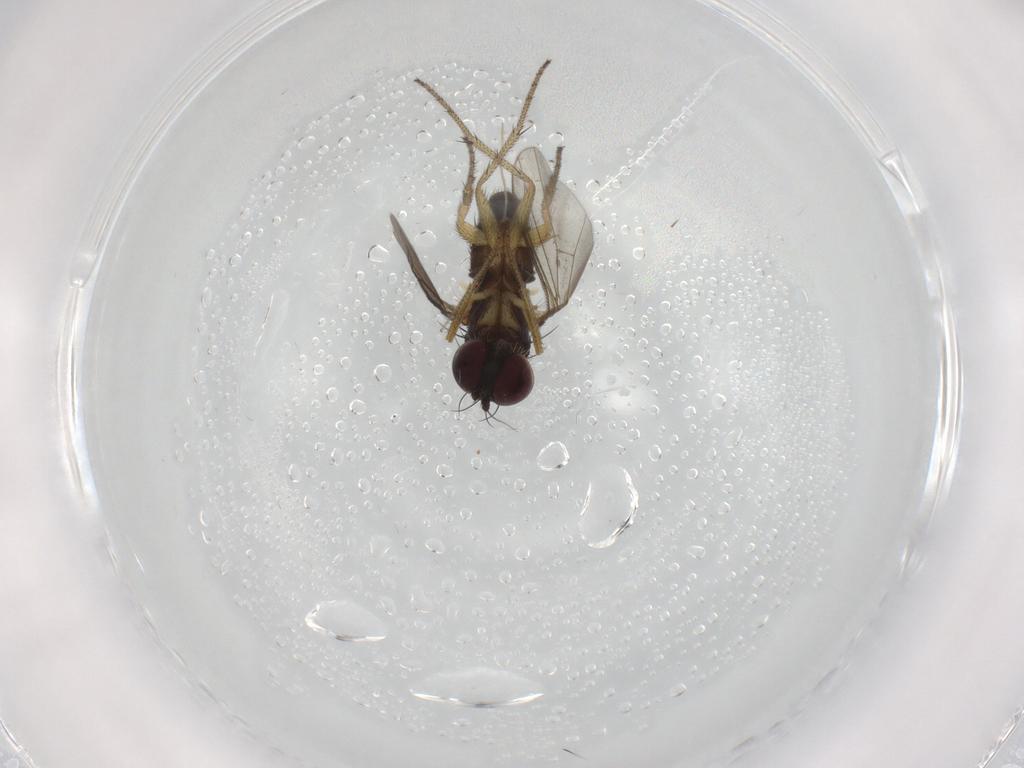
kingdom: Animalia
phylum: Arthropoda
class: Insecta
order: Diptera
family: Chironomidae
